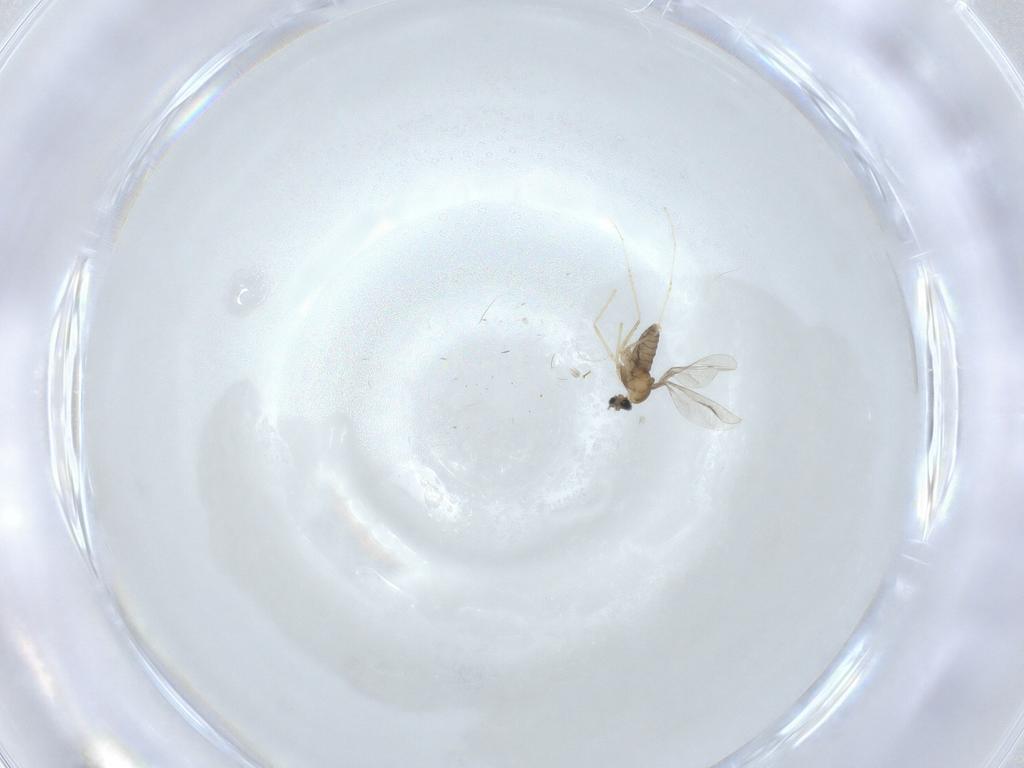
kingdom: Animalia
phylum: Arthropoda
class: Insecta
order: Diptera
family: Cecidomyiidae
